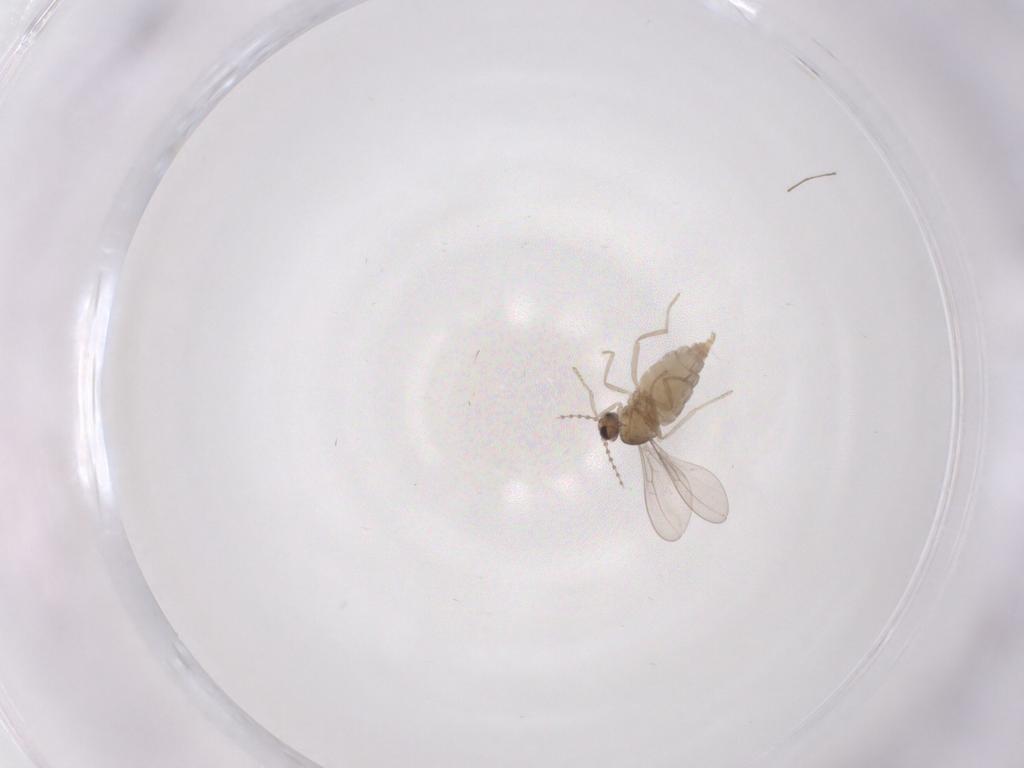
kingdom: Animalia
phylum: Arthropoda
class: Insecta
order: Diptera
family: Cecidomyiidae
